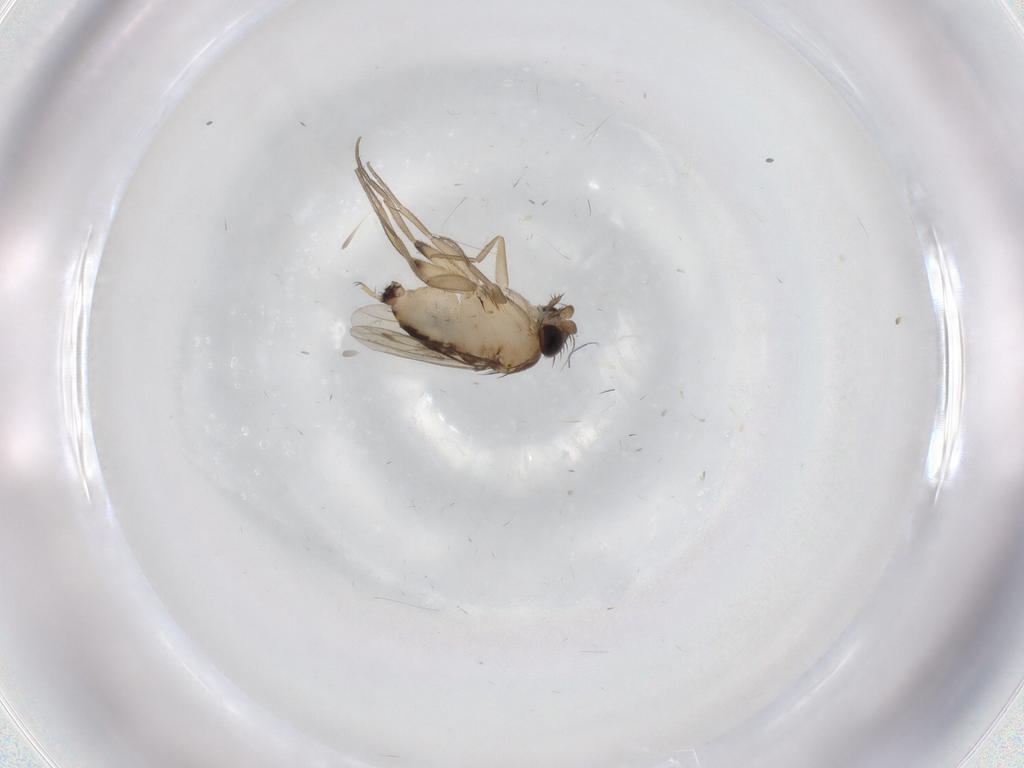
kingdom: Animalia
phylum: Arthropoda
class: Insecta
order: Diptera
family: Phoridae
